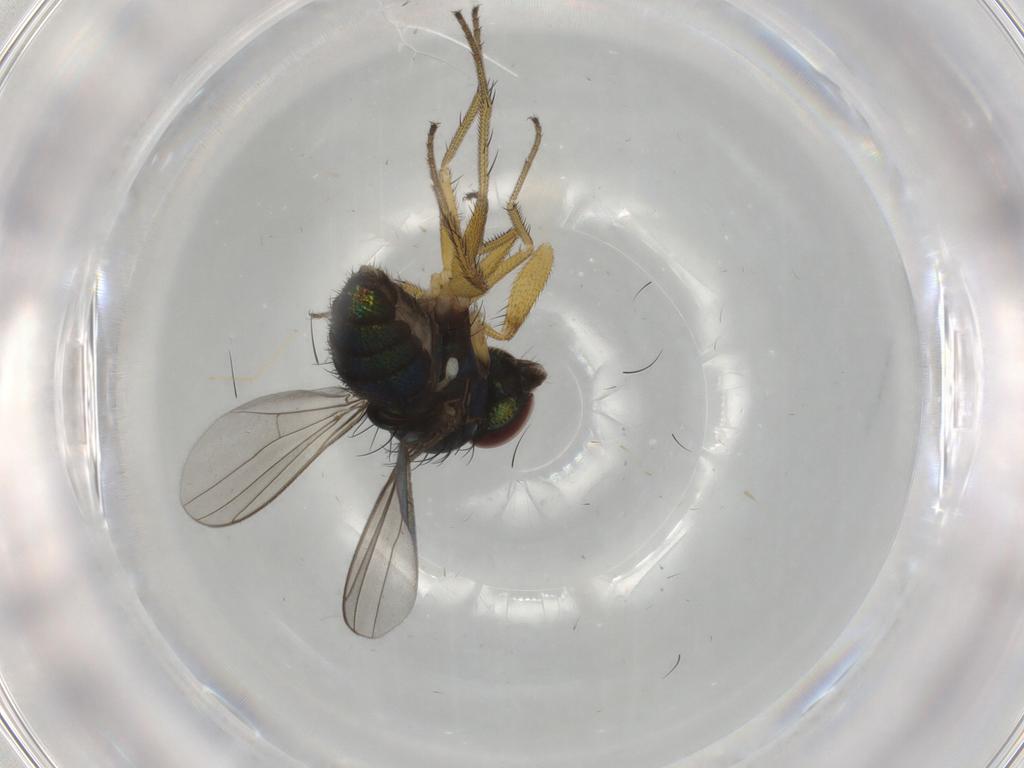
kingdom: Animalia
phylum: Arthropoda
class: Insecta
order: Diptera
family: Dolichopodidae
